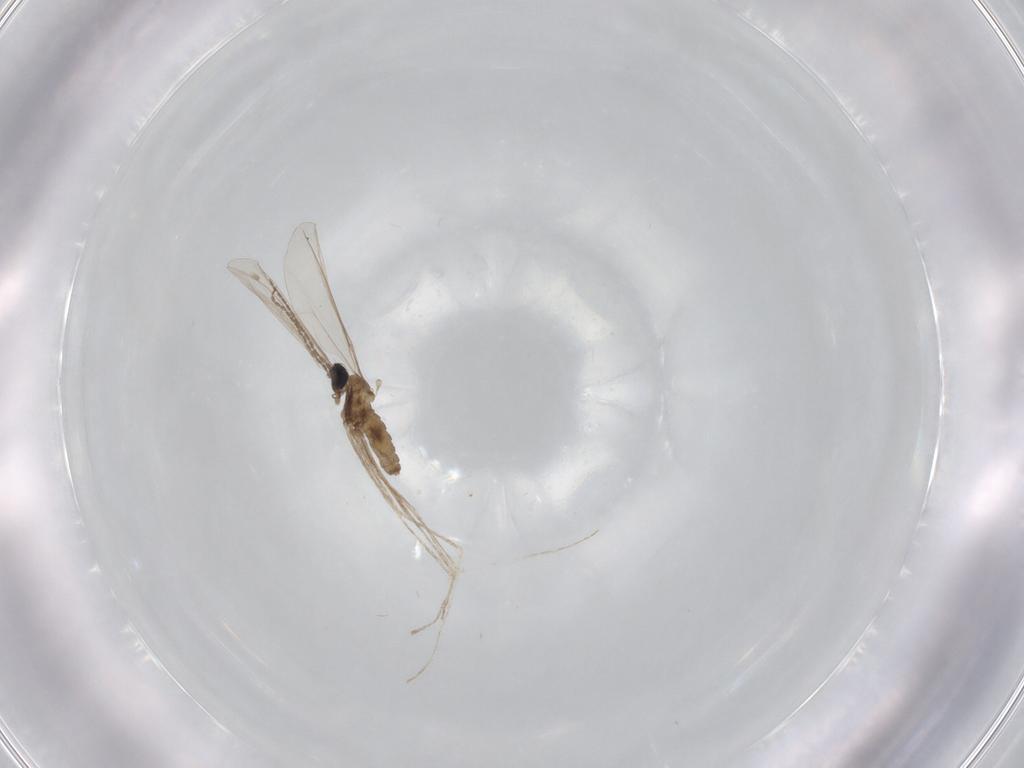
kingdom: Animalia
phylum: Arthropoda
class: Insecta
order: Diptera
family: Cecidomyiidae
